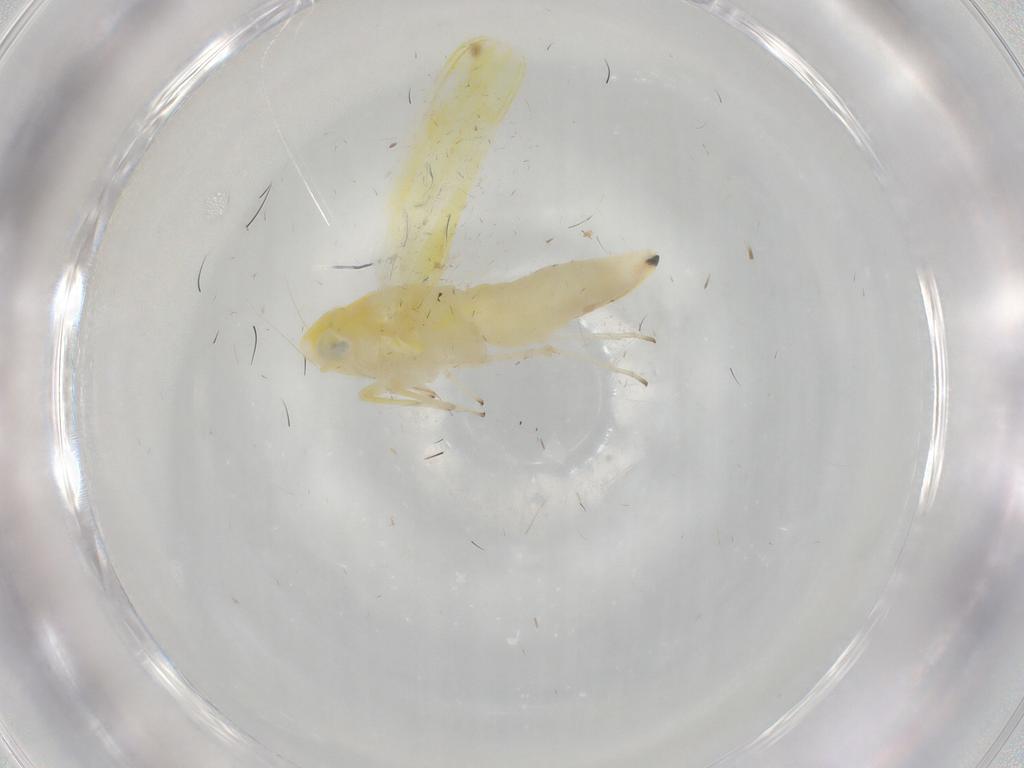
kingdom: Animalia
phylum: Arthropoda
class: Insecta
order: Hemiptera
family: Cicadellidae
